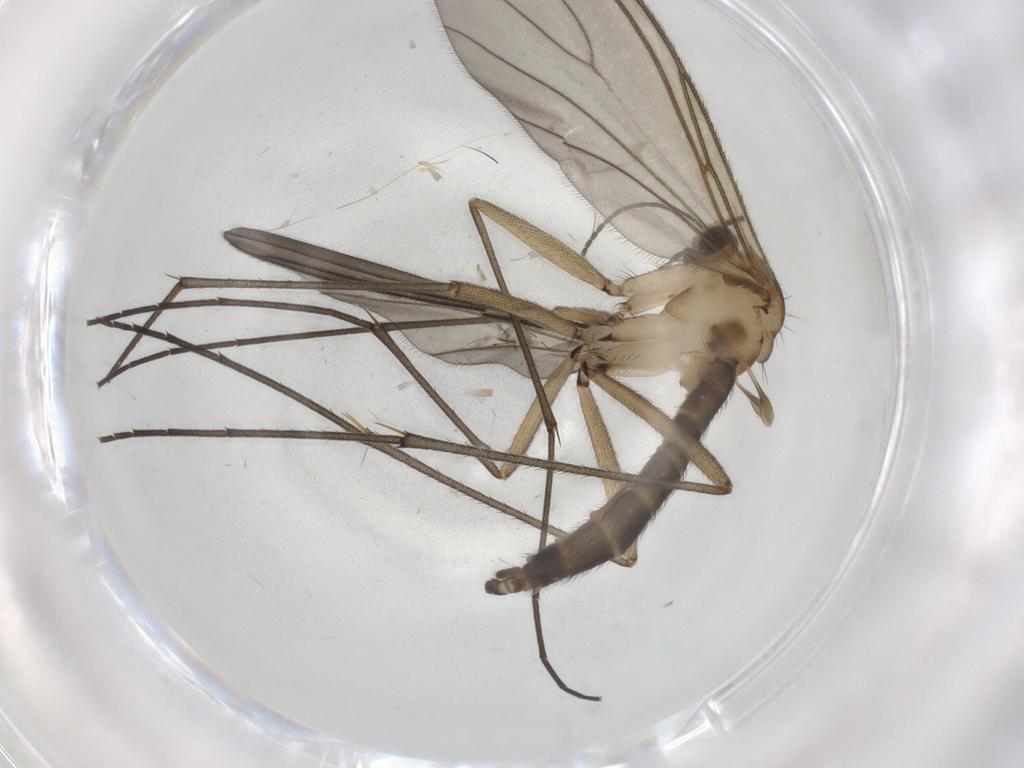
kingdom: Animalia
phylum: Arthropoda
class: Insecta
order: Diptera
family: Sciaridae
